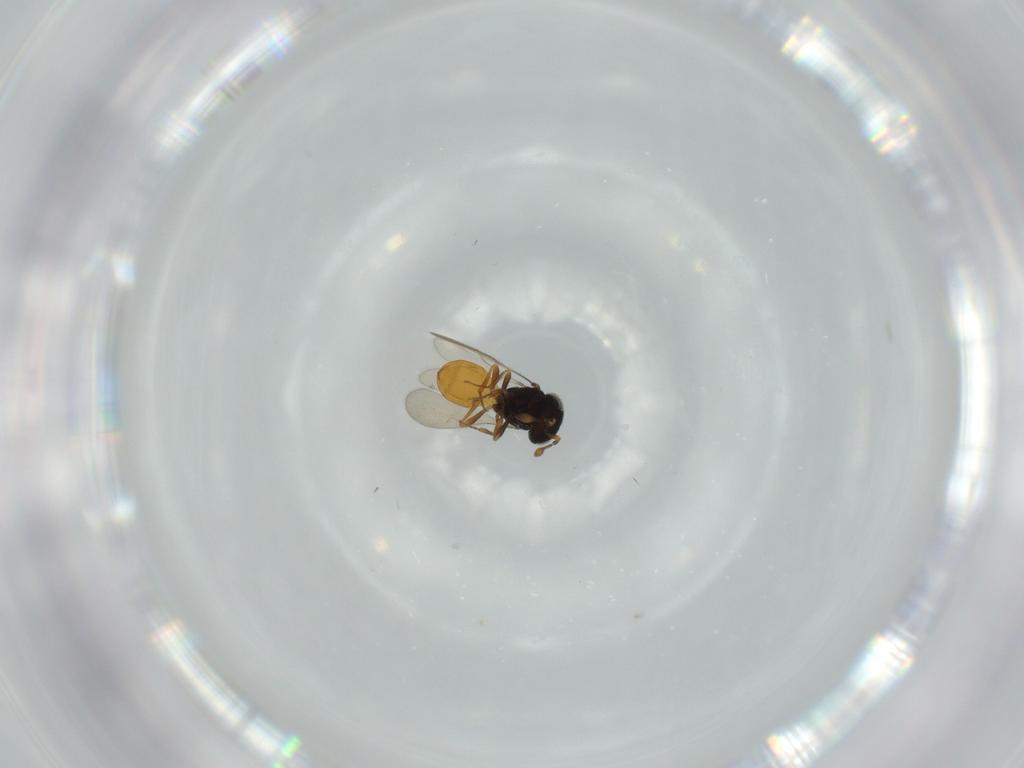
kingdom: Animalia
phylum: Arthropoda
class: Insecta
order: Hymenoptera
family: Scelionidae
